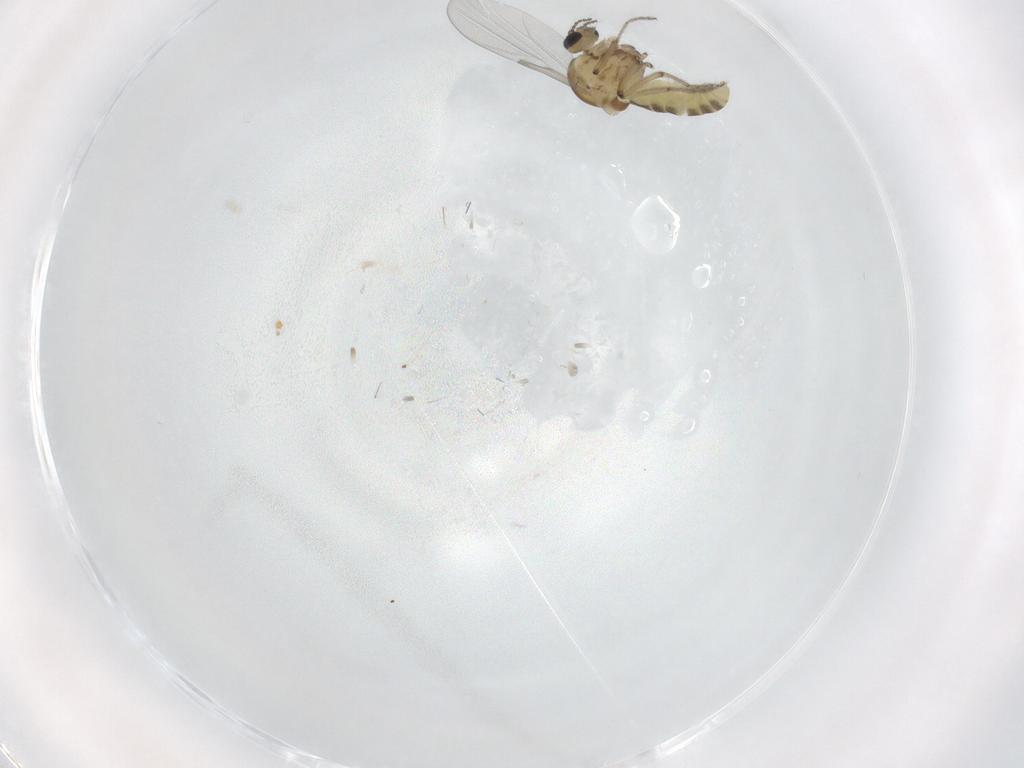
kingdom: Animalia
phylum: Arthropoda
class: Insecta
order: Diptera
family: Ceratopogonidae
